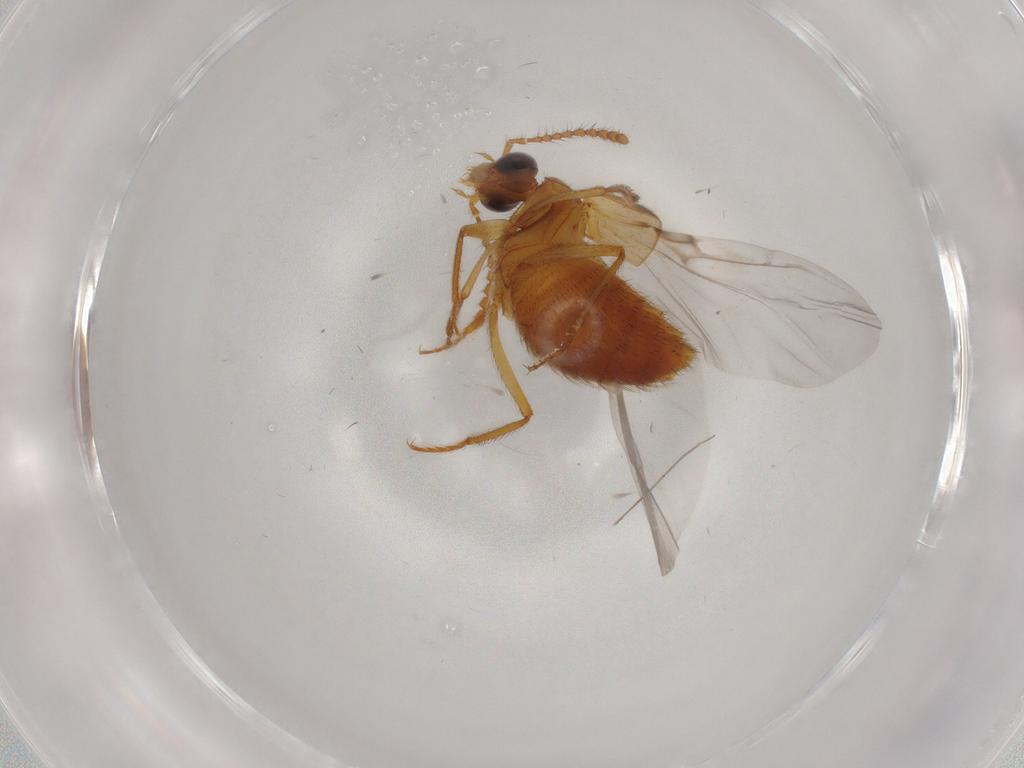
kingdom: Animalia
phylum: Arthropoda
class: Insecta
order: Coleoptera
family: Staphylinidae
